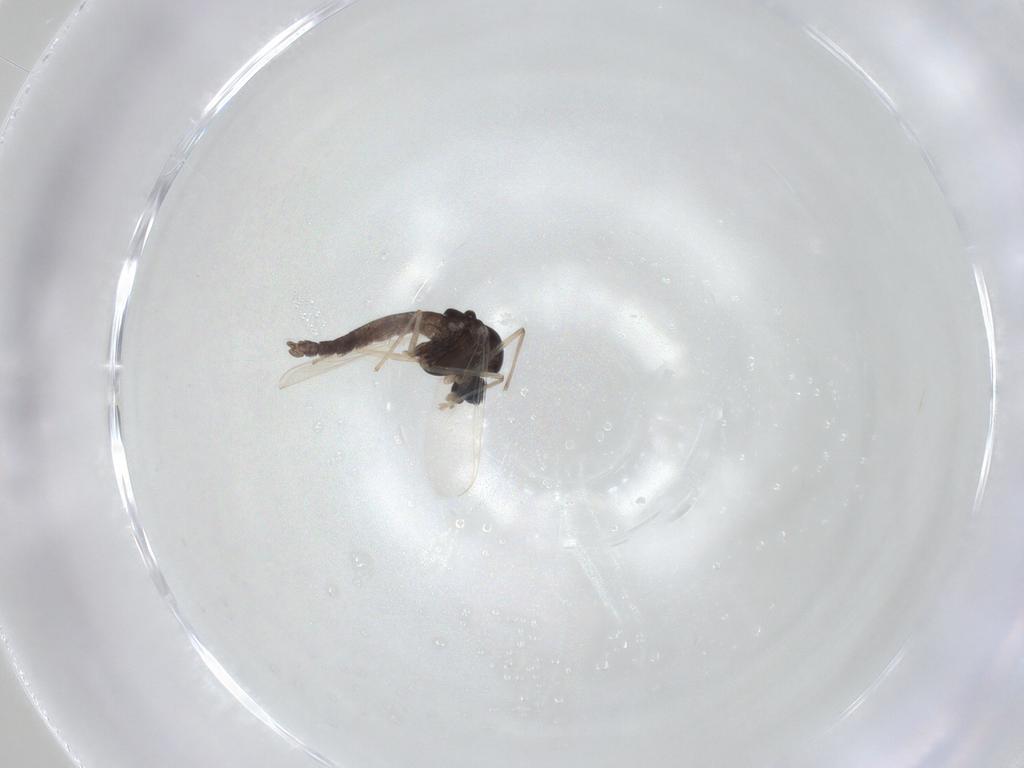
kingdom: Animalia
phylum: Arthropoda
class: Insecta
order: Diptera
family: Chironomidae
